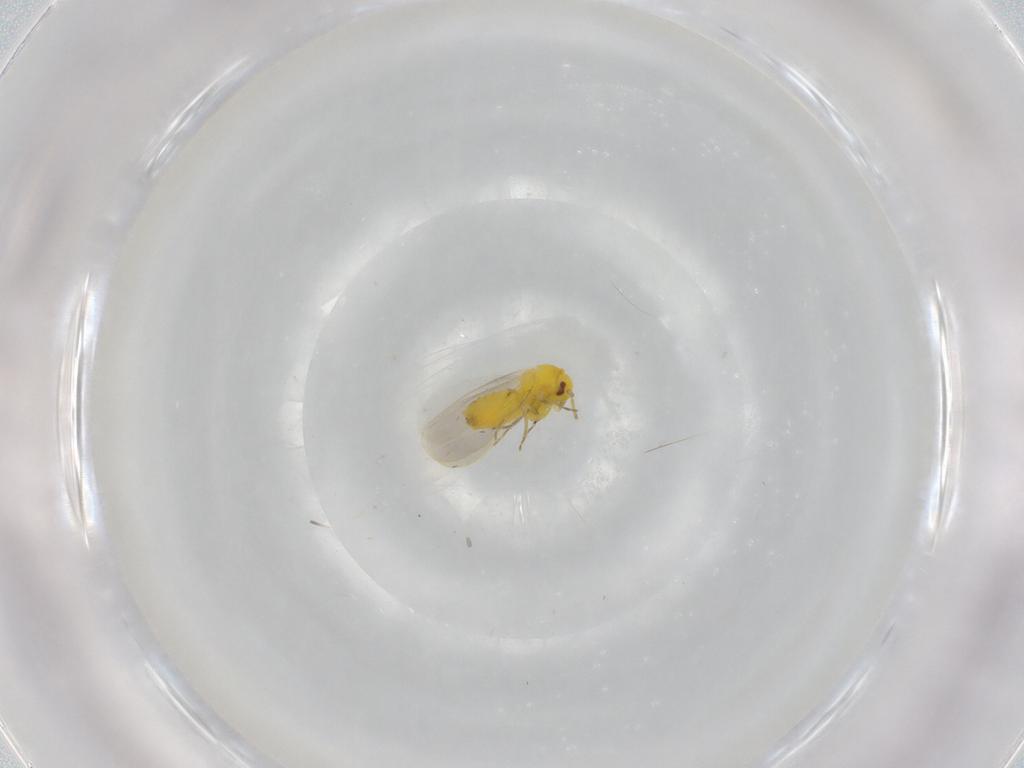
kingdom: Animalia
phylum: Arthropoda
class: Insecta
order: Hemiptera
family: Aleyrodidae
